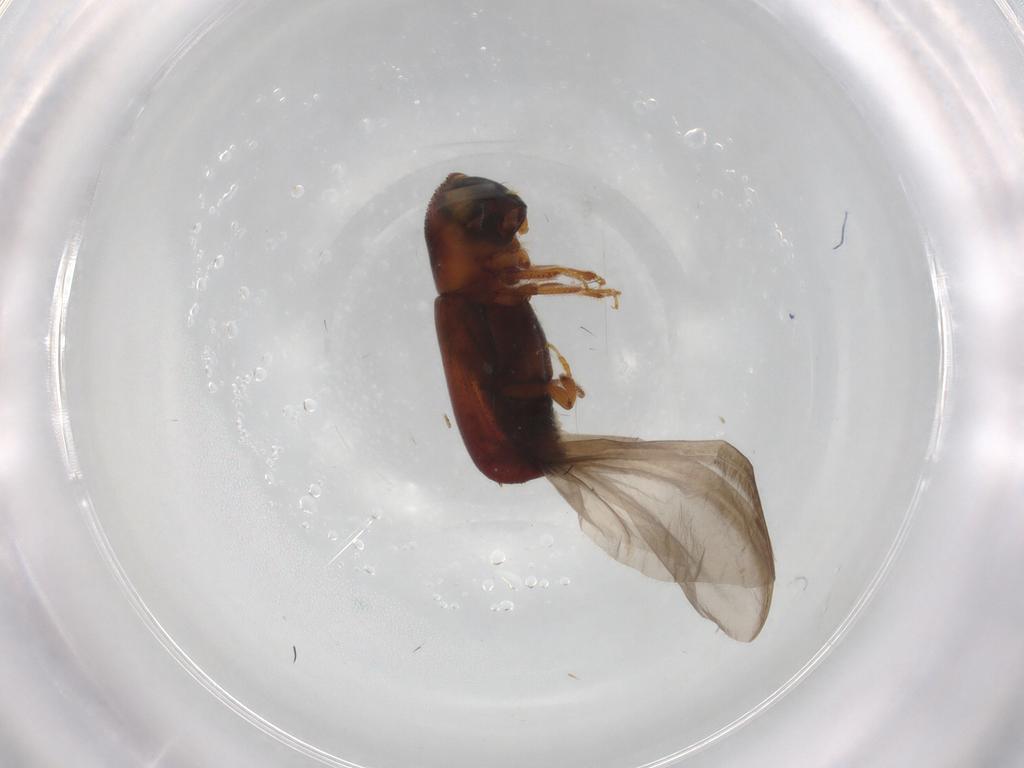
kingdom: Animalia
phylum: Arthropoda
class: Insecta
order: Coleoptera
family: Curculionidae
